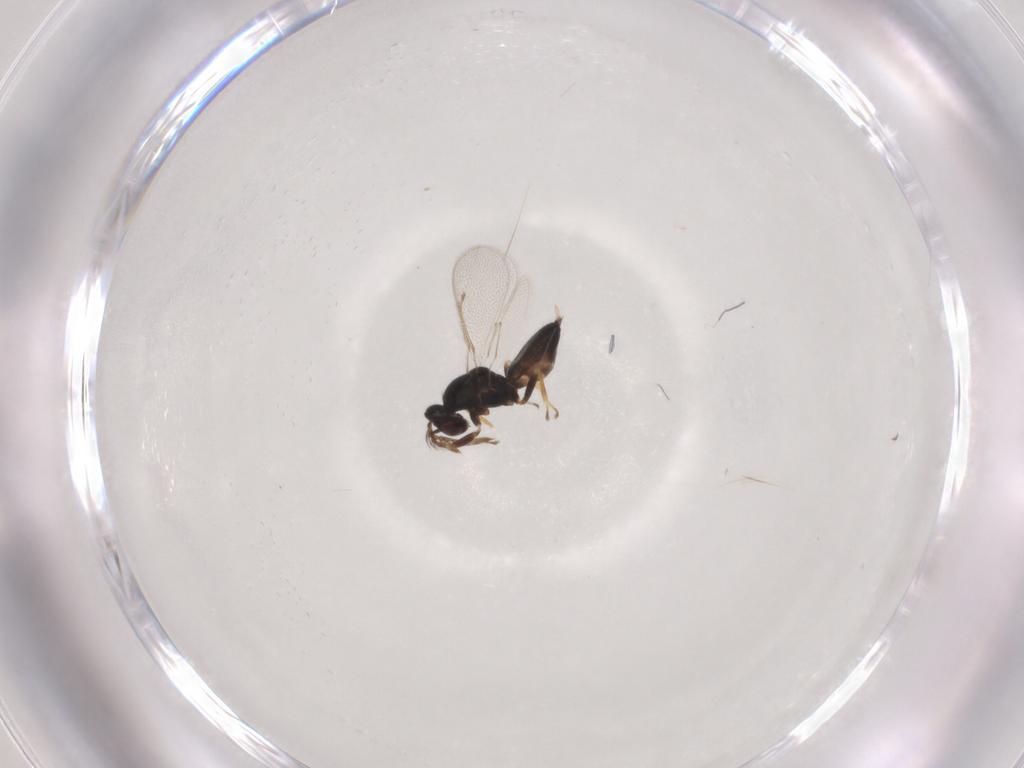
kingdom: Animalia
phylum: Arthropoda
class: Insecta
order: Hymenoptera
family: Eulophidae
